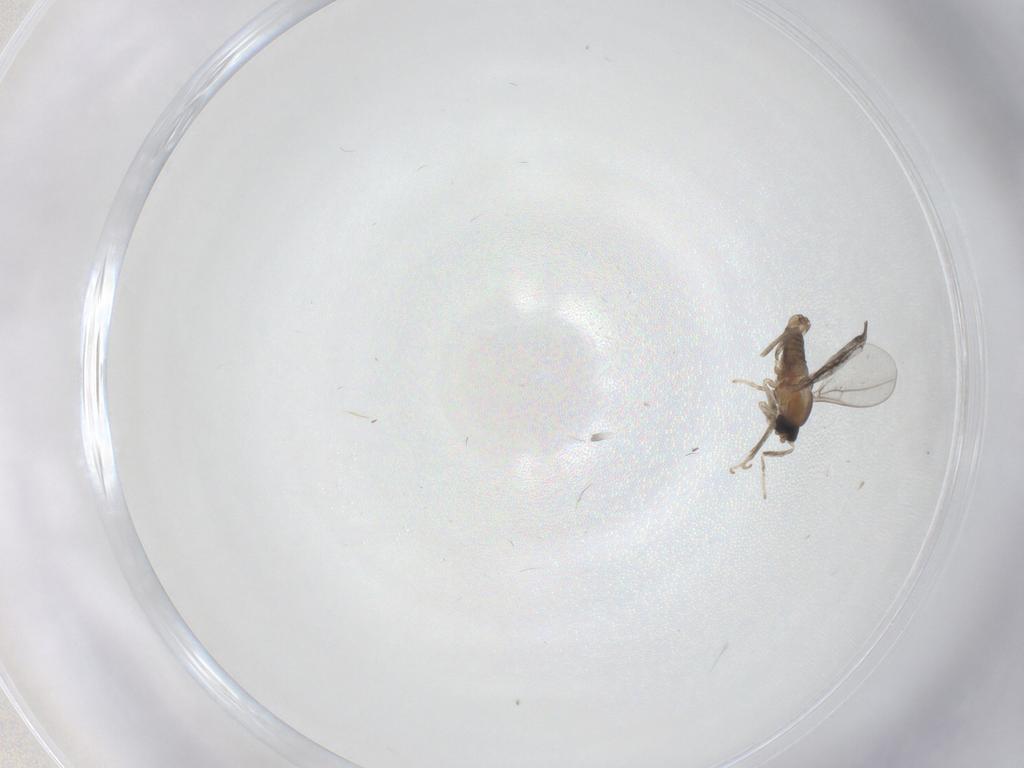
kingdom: Animalia
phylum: Arthropoda
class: Insecta
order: Diptera
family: Cecidomyiidae
